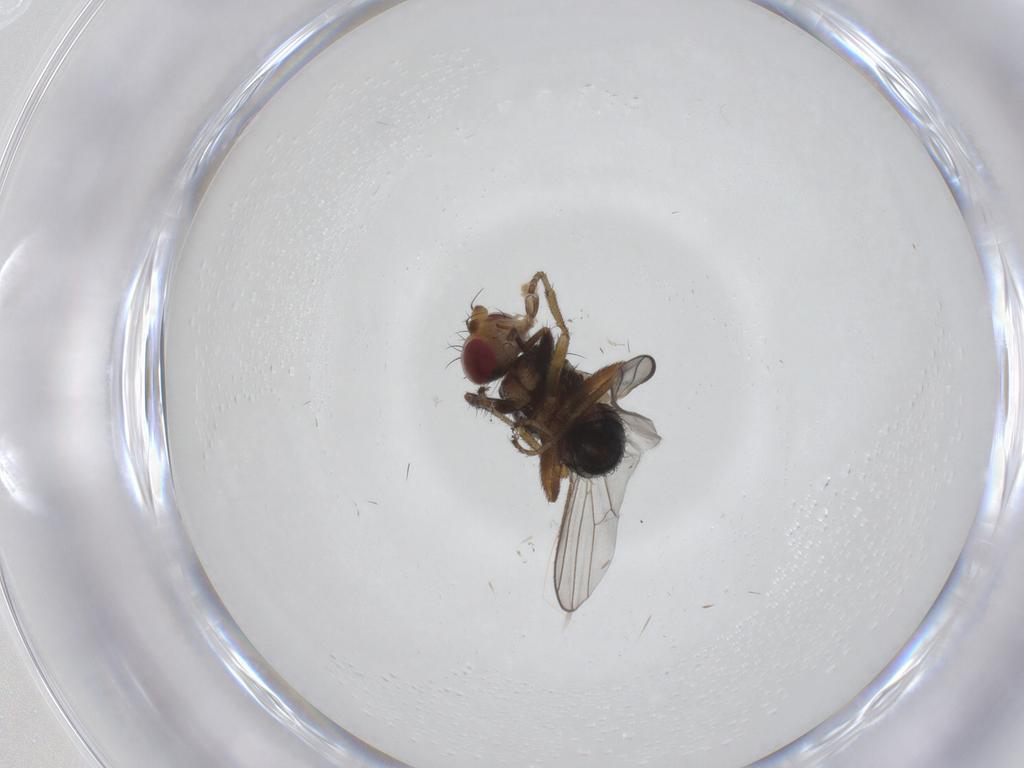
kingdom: Animalia
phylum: Arthropoda
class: Insecta
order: Diptera
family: Heleomyzidae
